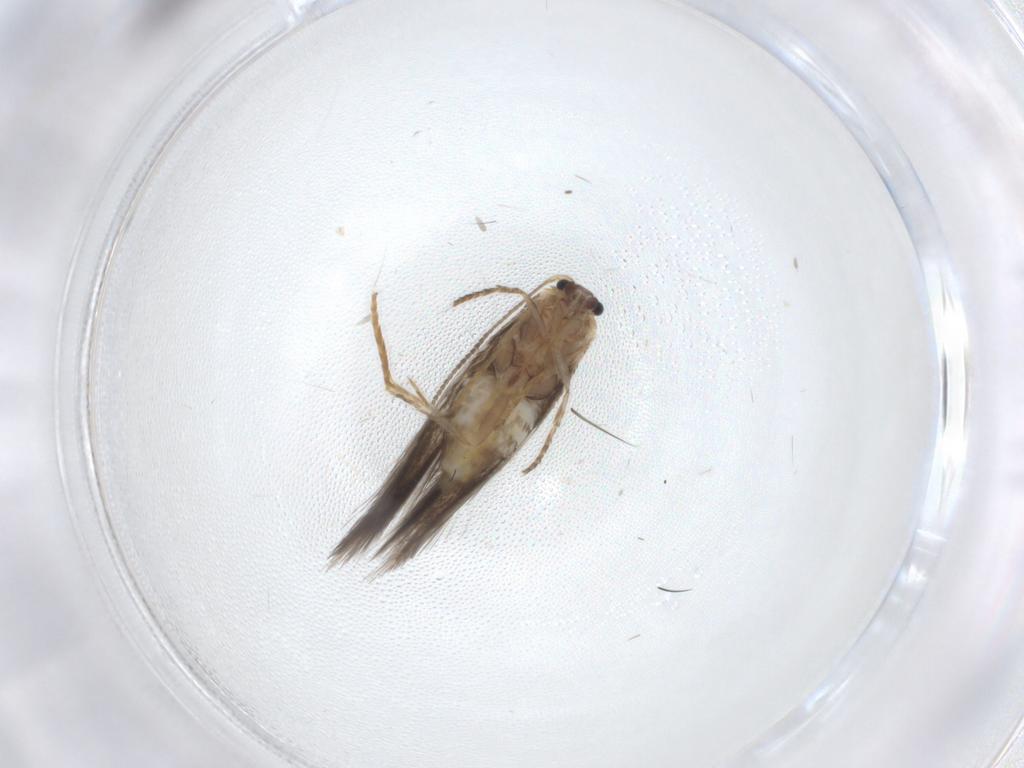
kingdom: Animalia
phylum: Arthropoda
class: Insecta
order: Lepidoptera
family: Nepticulidae
